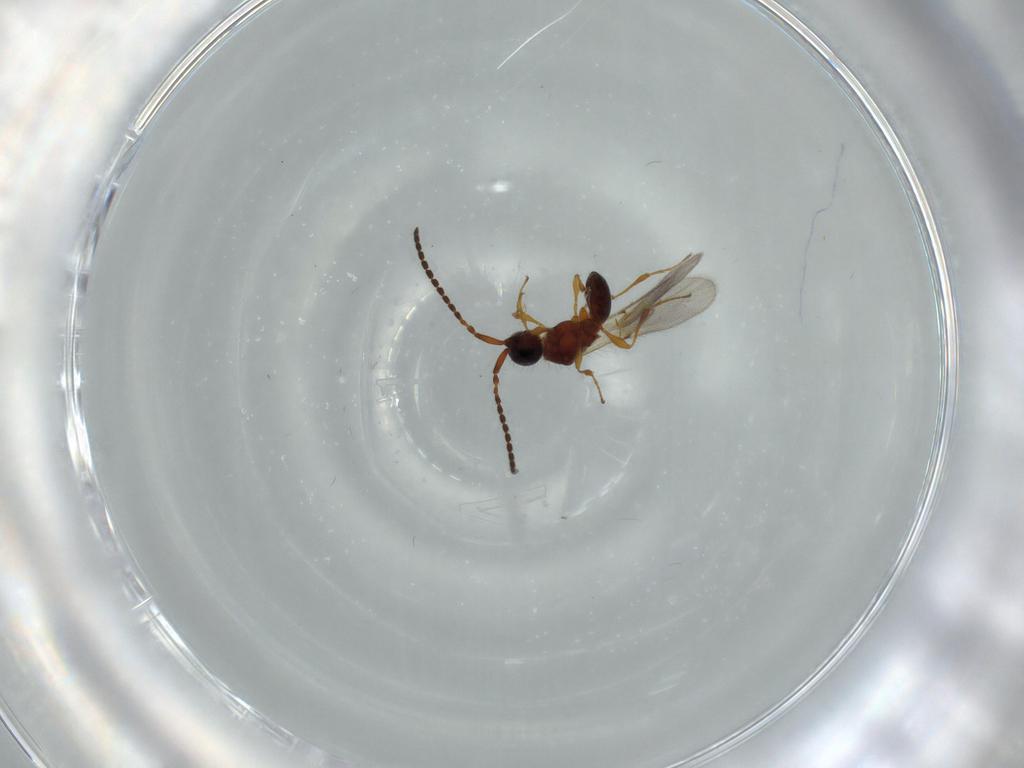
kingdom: Animalia
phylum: Arthropoda
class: Insecta
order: Hymenoptera
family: Diapriidae
